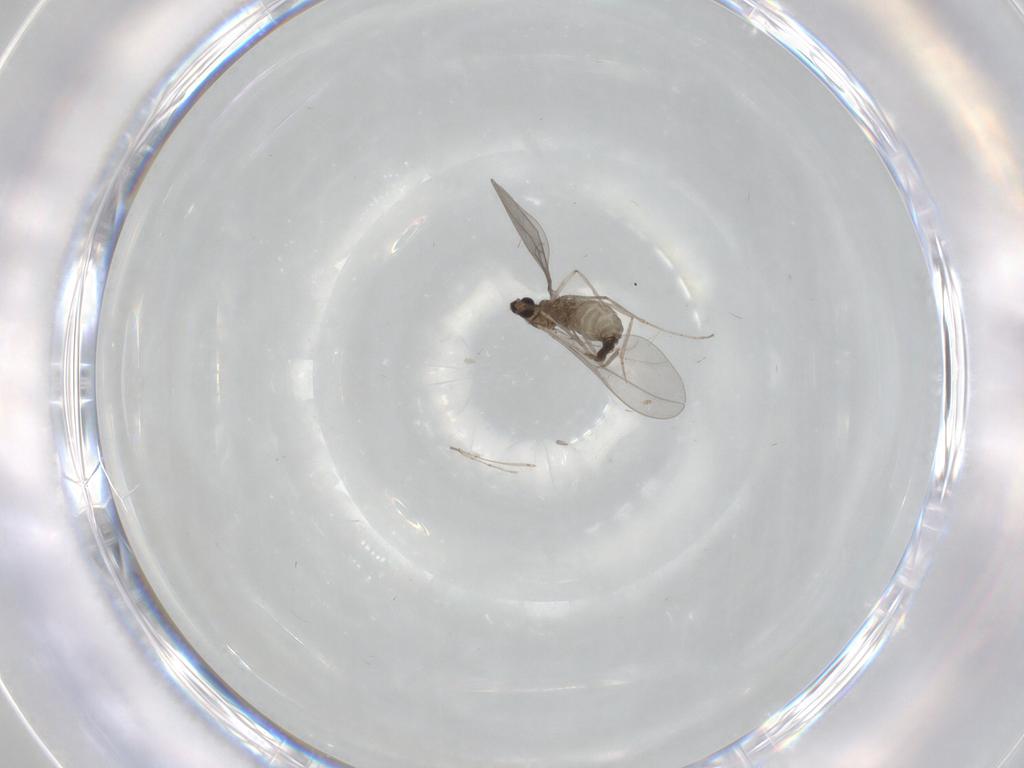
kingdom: Animalia
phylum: Arthropoda
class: Insecta
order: Diptera
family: Cecidomyiidae
